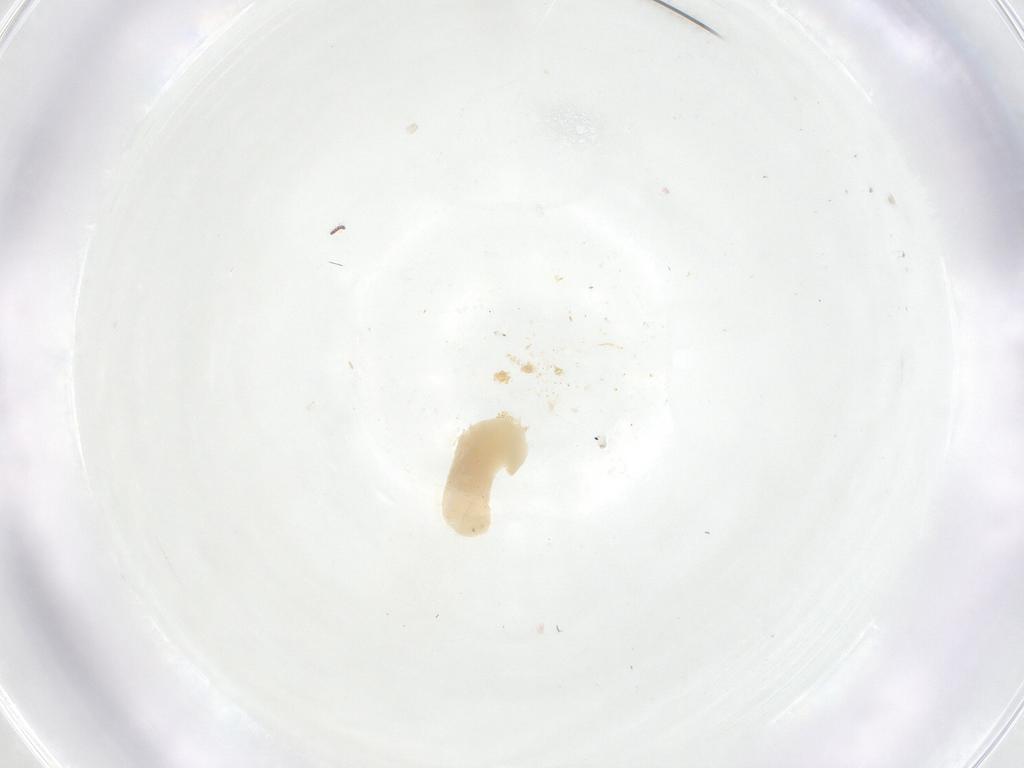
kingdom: Animalia
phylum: Arthropoda
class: Insecta
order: Diptera
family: Fergusoninidae
